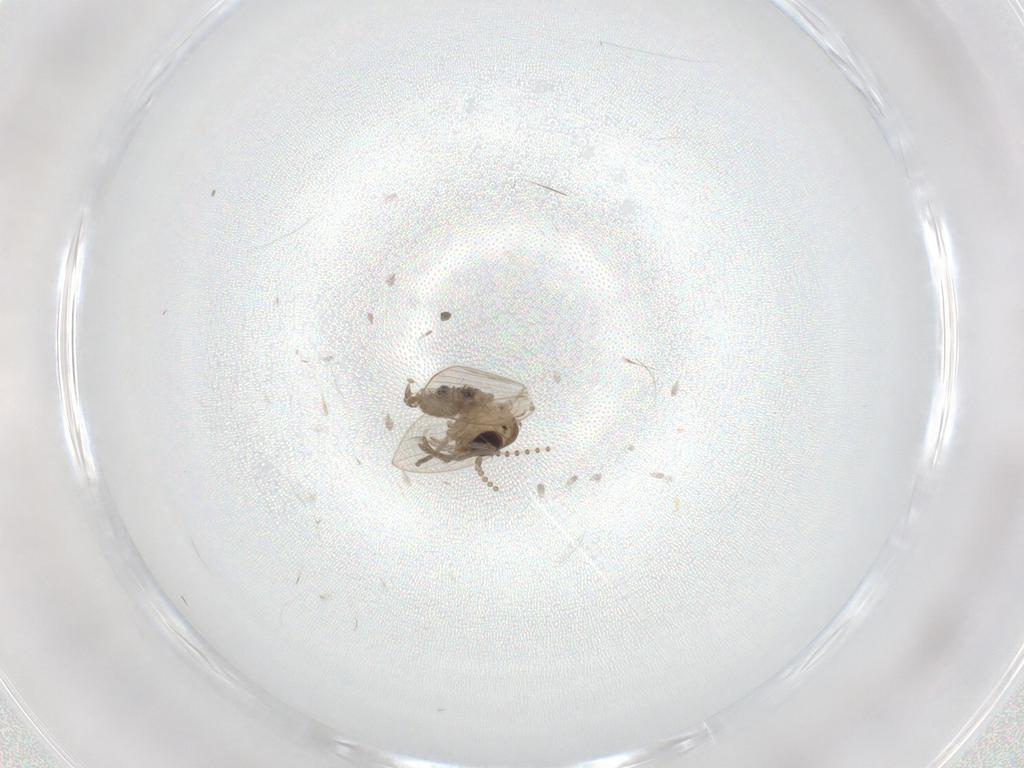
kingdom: Animalia
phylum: Arthropoda
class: Insecta
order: Diptera
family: Psychodidae
